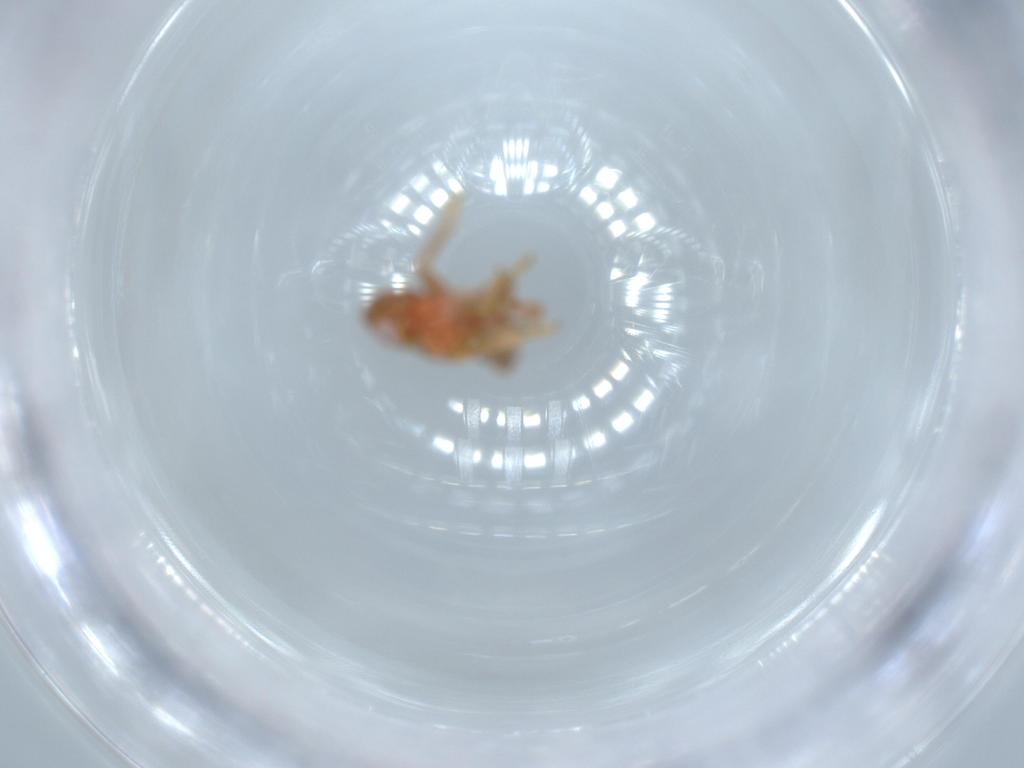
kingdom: Animalia
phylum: Arthropoda
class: Insecta
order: Hemiptera
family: Issidae
